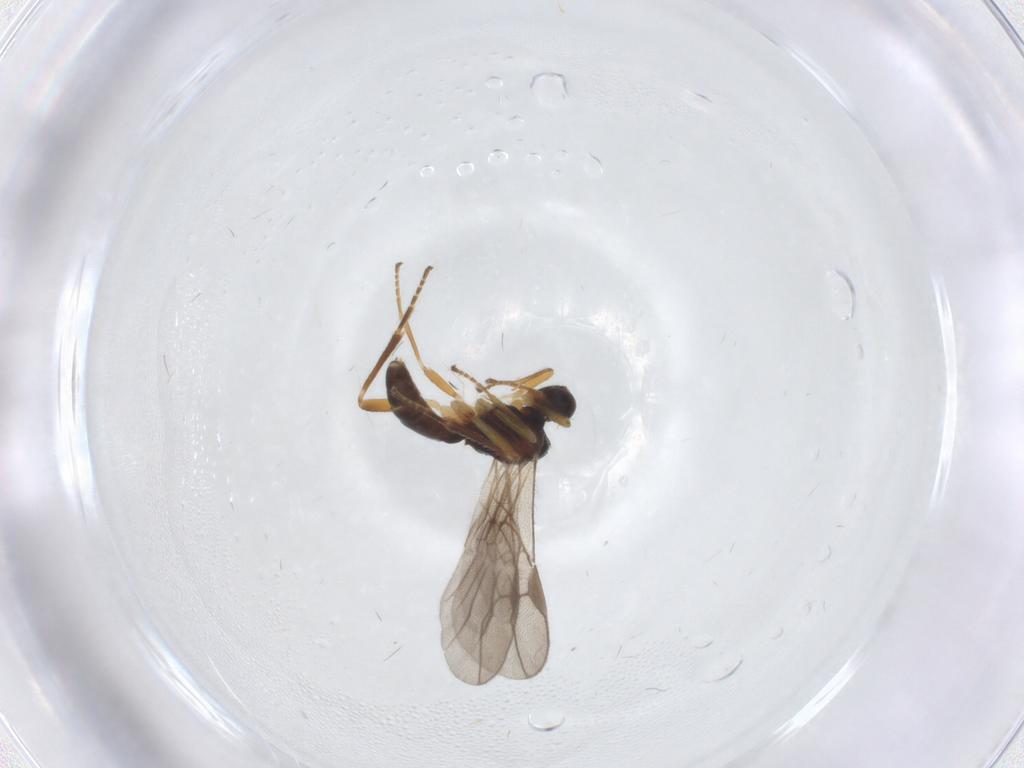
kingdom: Animalia
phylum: Arthropoda
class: Insecta
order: Hymenoptera
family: Braconidae
